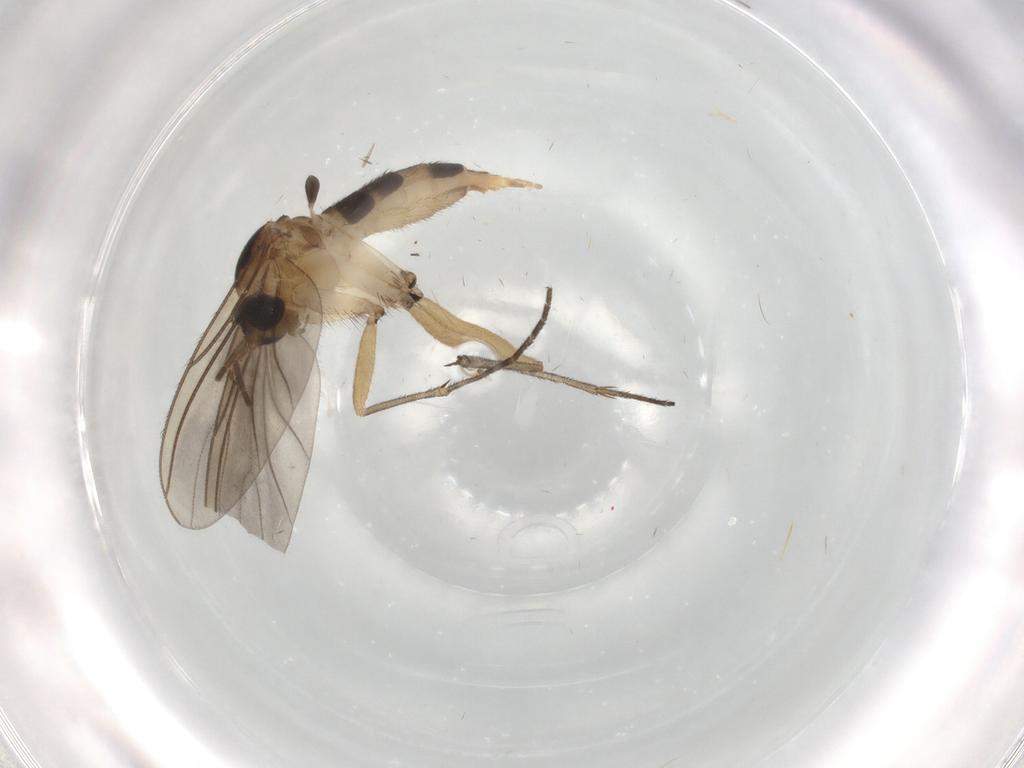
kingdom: Animalia
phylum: Arthropoda
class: Insecta
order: Diptera
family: Sciaridae
